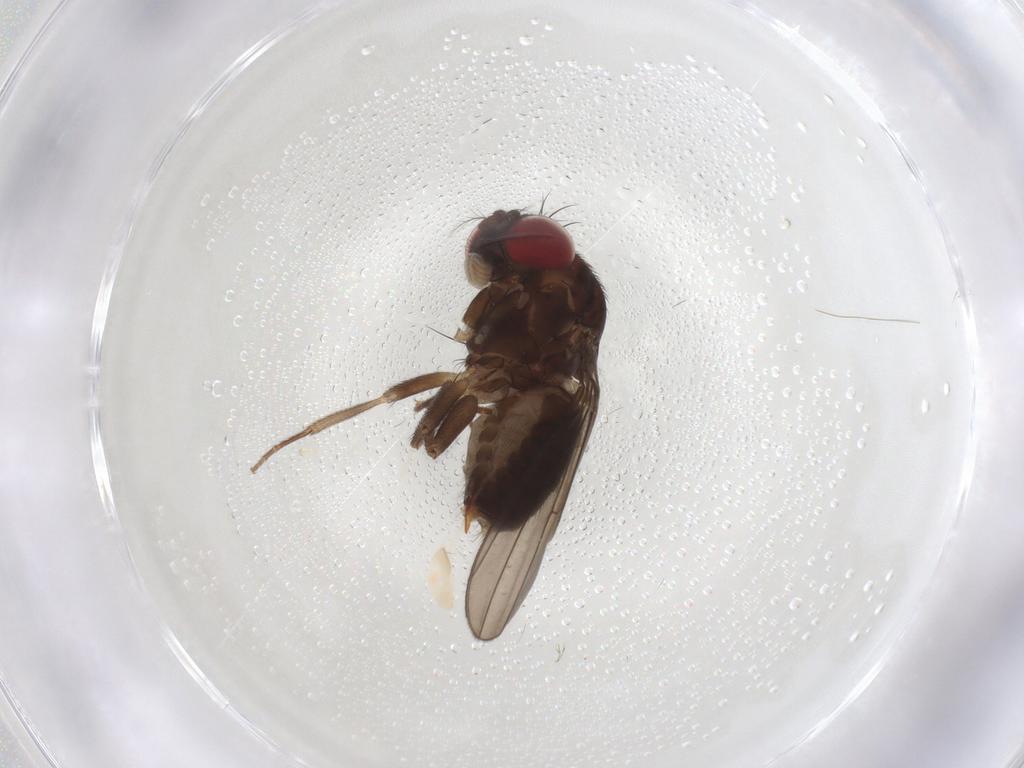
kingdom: Animalia
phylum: Arthropoda
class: Insecta
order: Diptera
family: Drosophilidae
